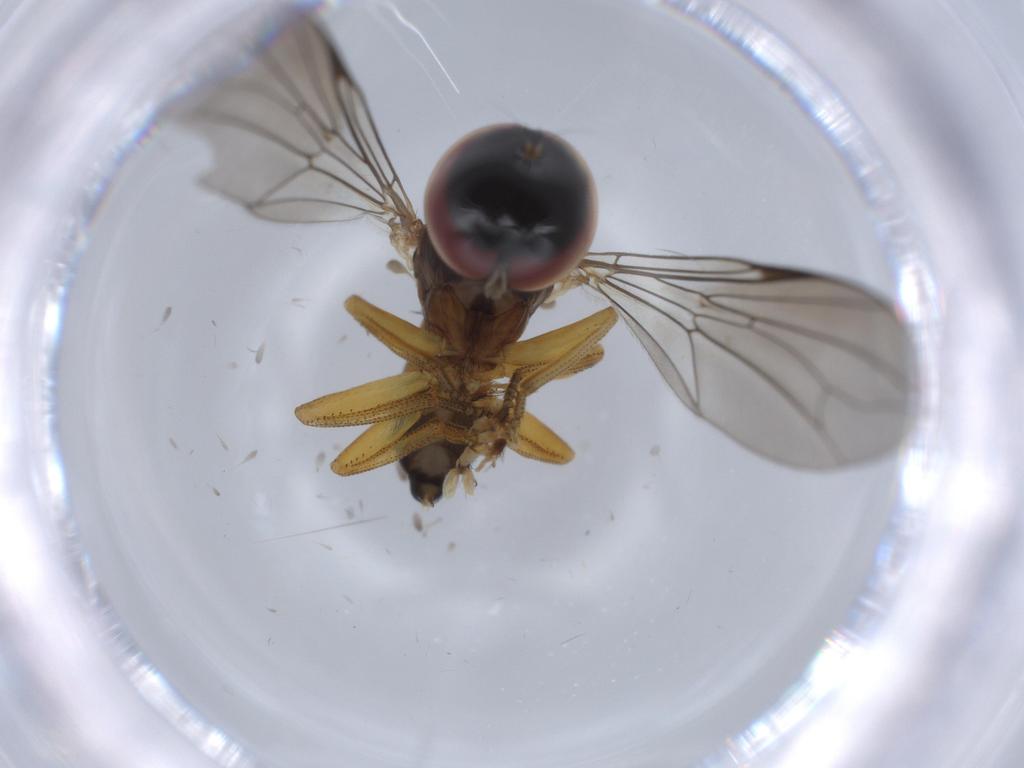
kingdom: Animalia
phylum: Arthropoda
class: Insecta
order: Diptera
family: Pipunculidae
